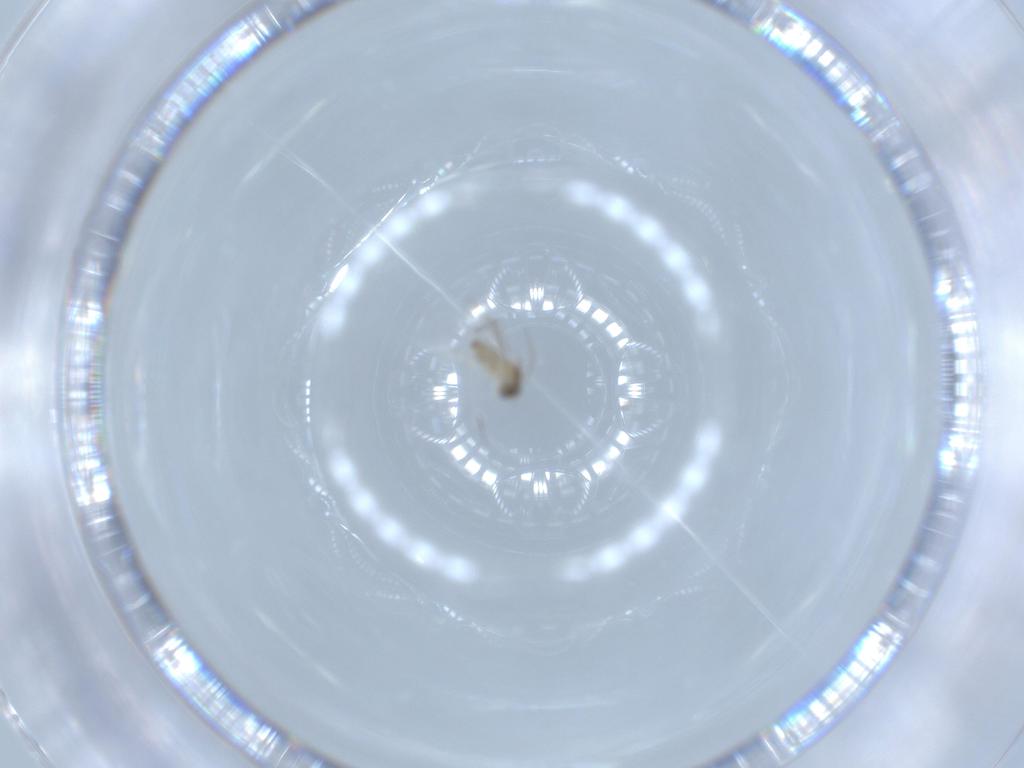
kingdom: Animalia
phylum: Arthropoda
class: Insecta
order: Diptera
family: Cecidomyiidae
